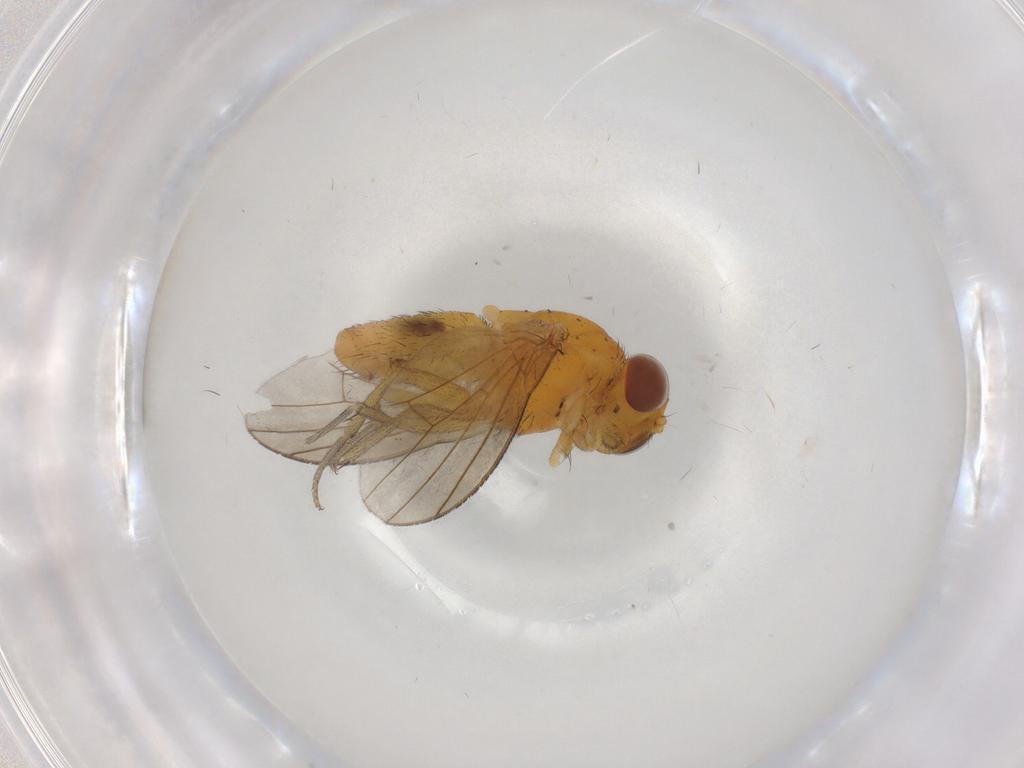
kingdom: Animalia
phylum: Arthropoda
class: Insecta
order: Diptera
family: Lauxaniidae
